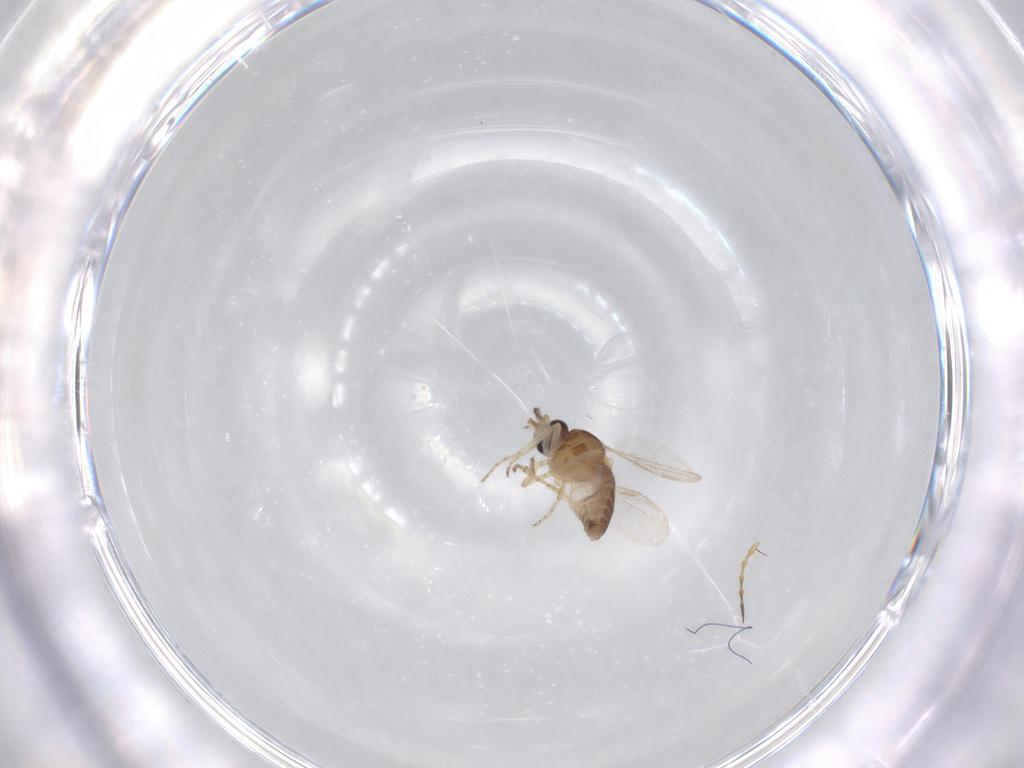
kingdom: Animalia
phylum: Arthropoda
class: Insecta
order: Diptera
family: Ceratopogonidae
